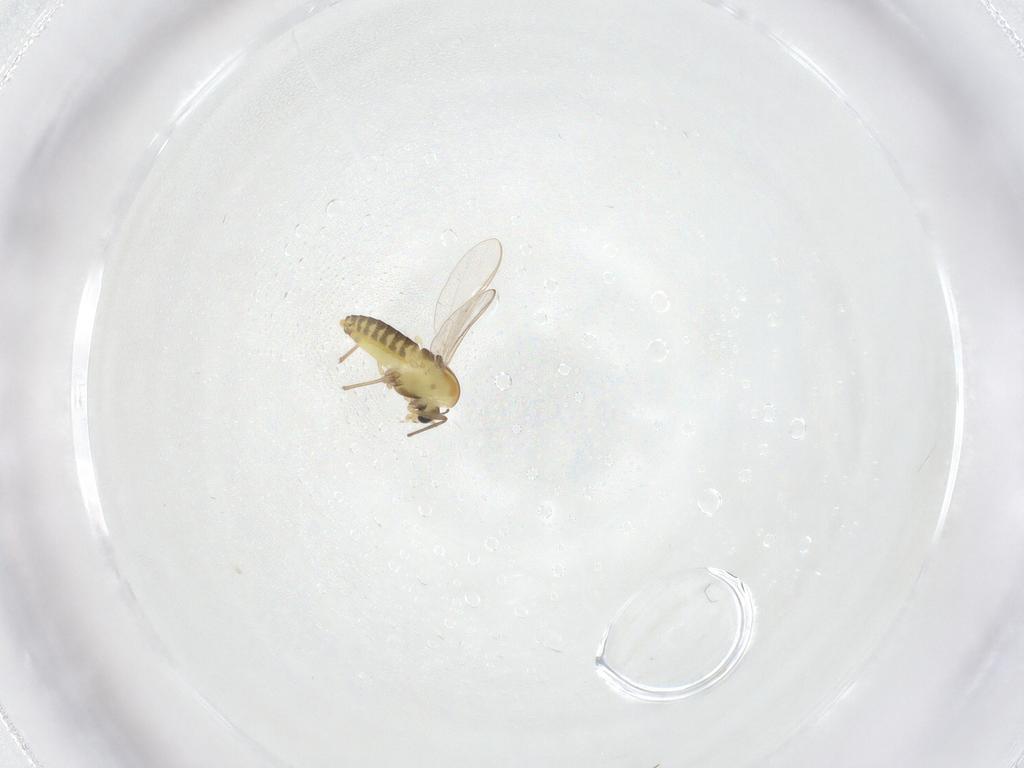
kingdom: Animalia
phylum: Arthropoda
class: Insecta
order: Diptera
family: Chironomidae
